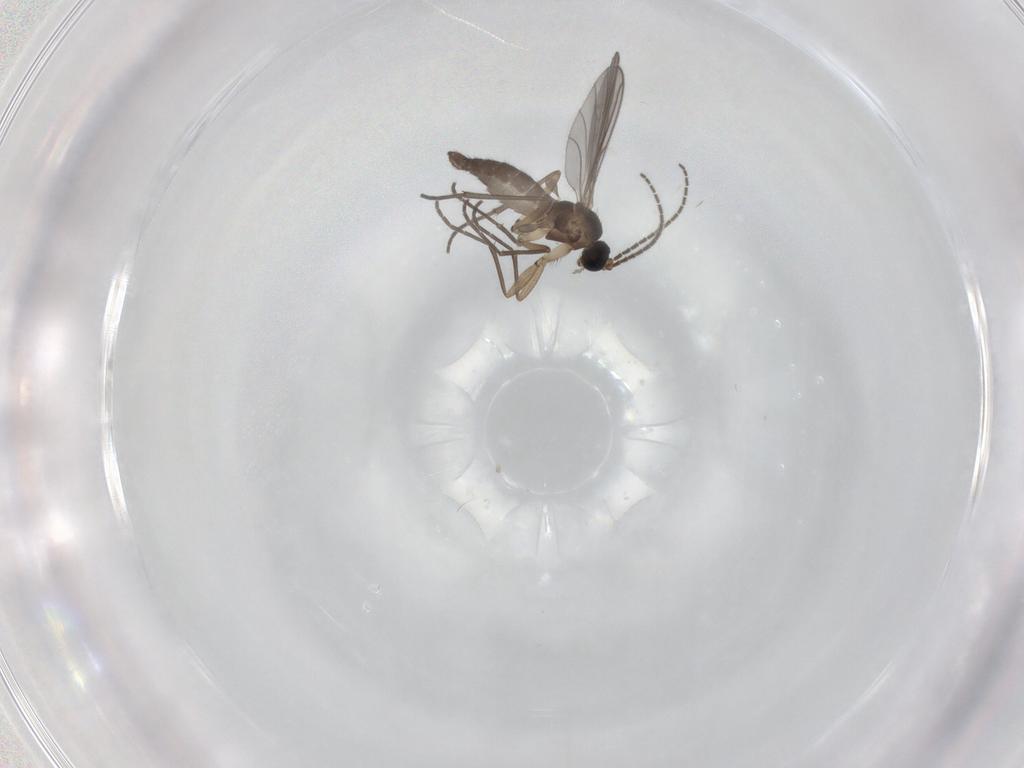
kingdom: Animalia
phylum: Arthropoda
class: Insecta
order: Diptera
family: Sciaridae
